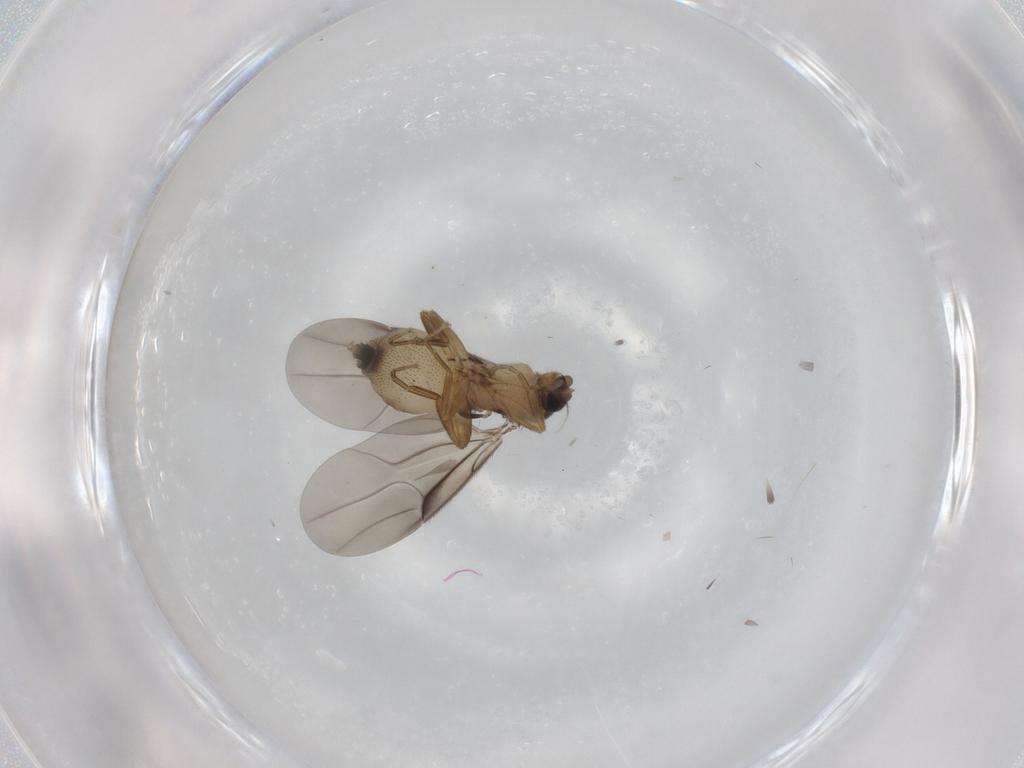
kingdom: Animalia
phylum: Arthropoda
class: Insecta
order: Diptera
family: Phoridae
